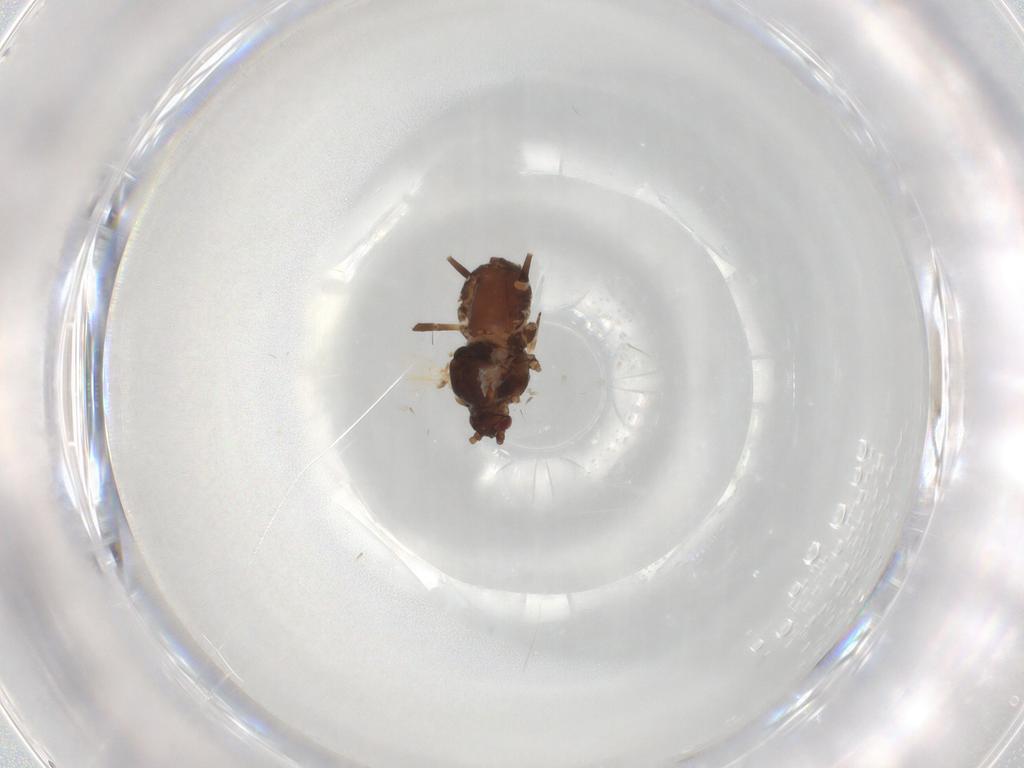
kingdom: Animalia
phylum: Arthropoda
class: Insecta
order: Hemiptera
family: Aphididae
